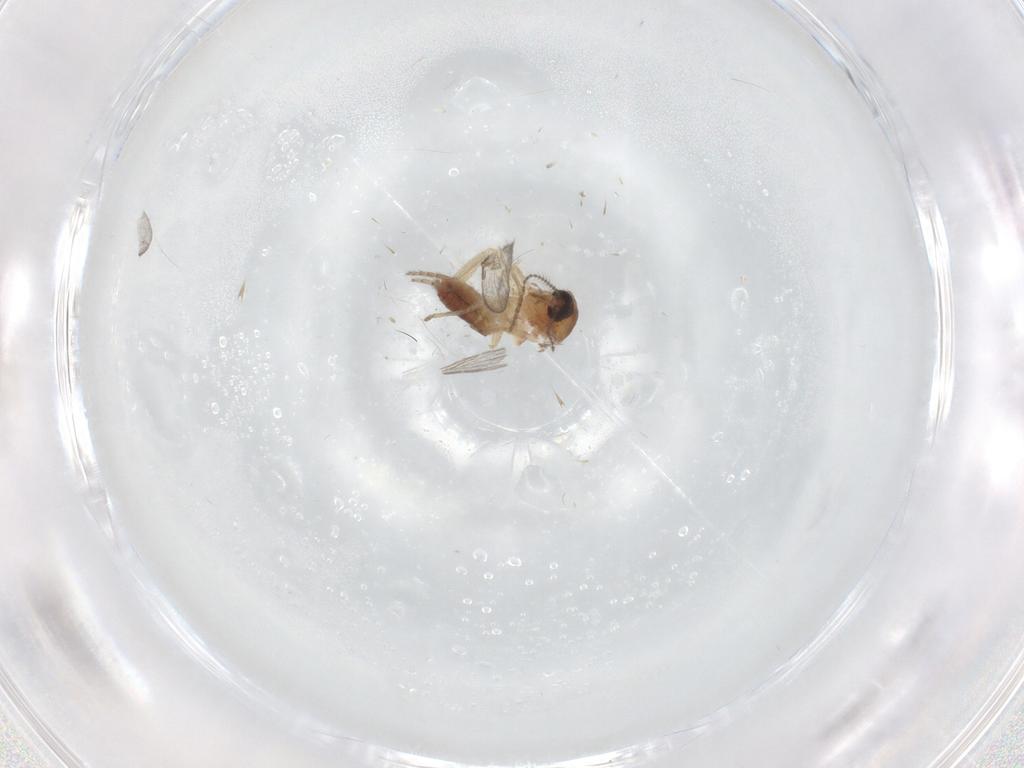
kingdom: Animalia
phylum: Arthropoda
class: Insecta
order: Diptera
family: Ceratopogonidae
